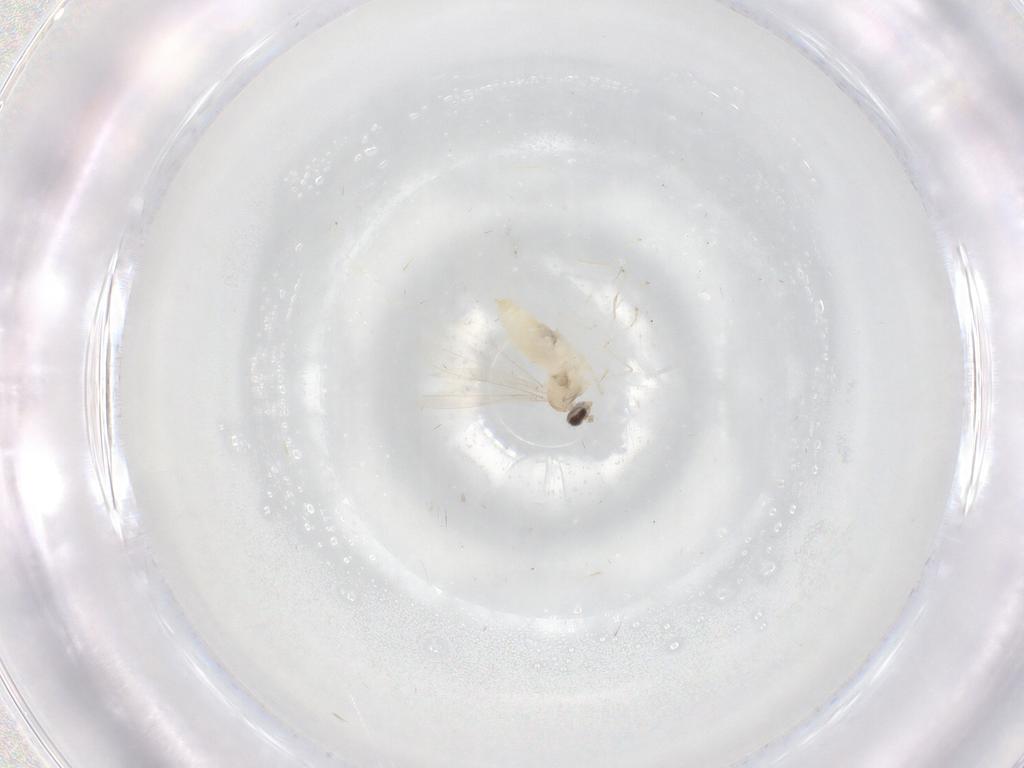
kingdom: Animalia
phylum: Arthropoda
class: Insecta
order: Diptera
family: Cecidomyiidae
